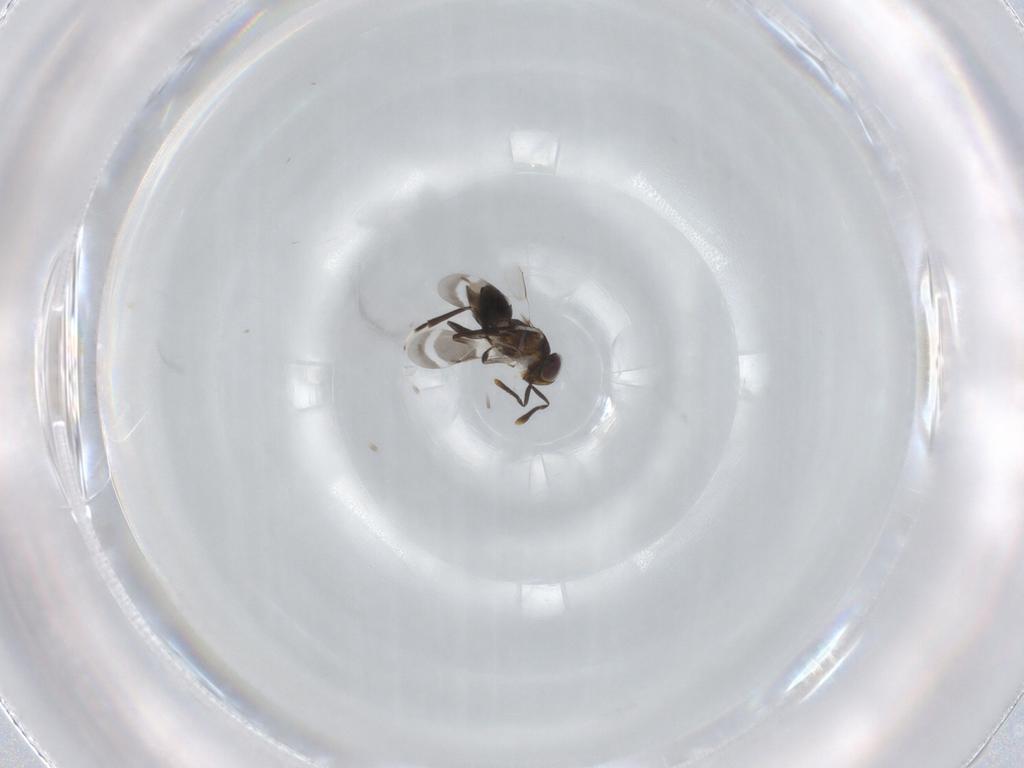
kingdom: Animalia
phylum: Arthropoda
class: Insecta
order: Hymenoptera
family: Encyrtidae
